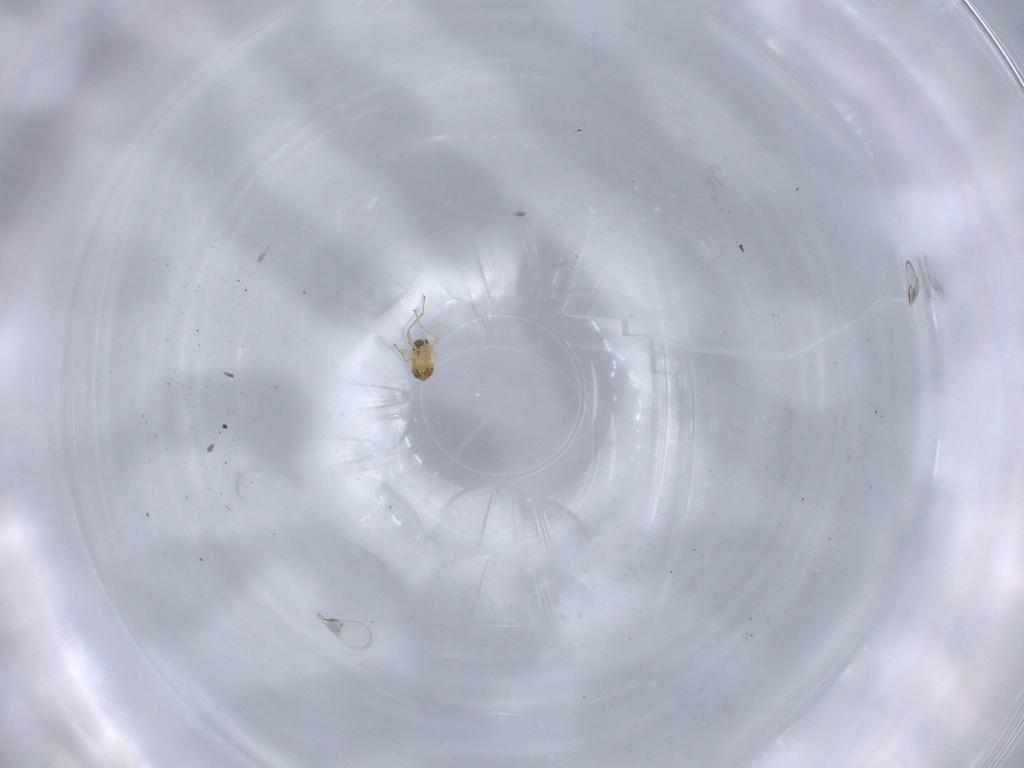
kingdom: Animalia
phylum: Arthropoda
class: Insecta
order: Hymenoptera
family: Trichogrammatidae
